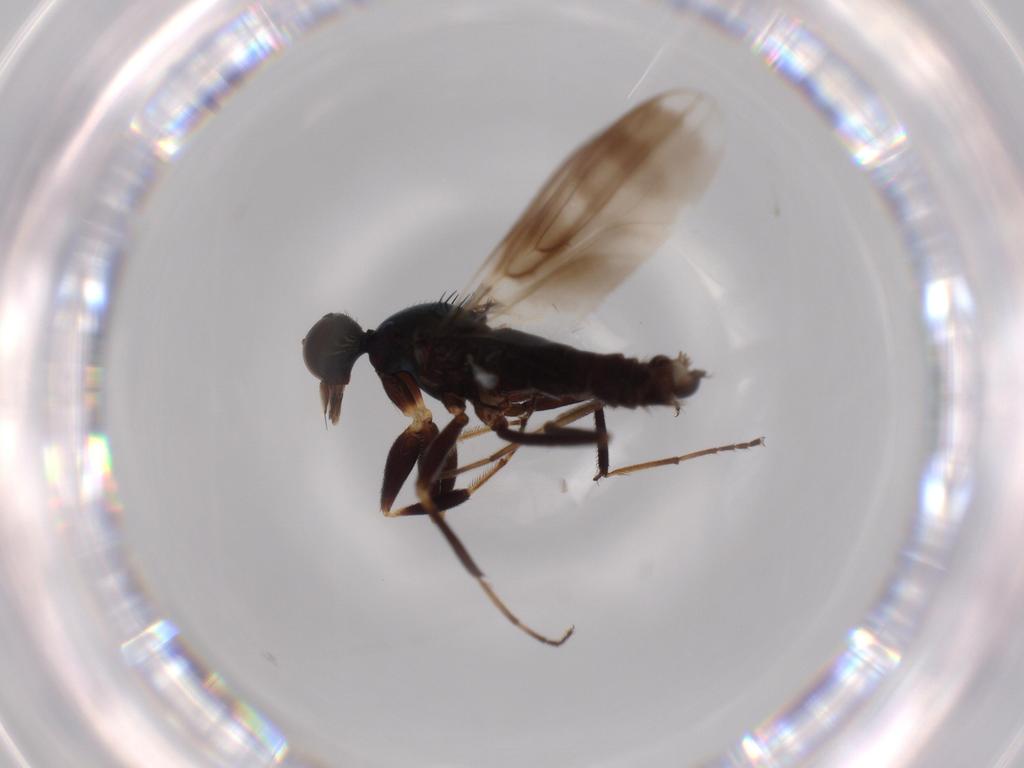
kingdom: Animalia
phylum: Arthropoda
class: Insecta
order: Diptera
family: Hybotidae
